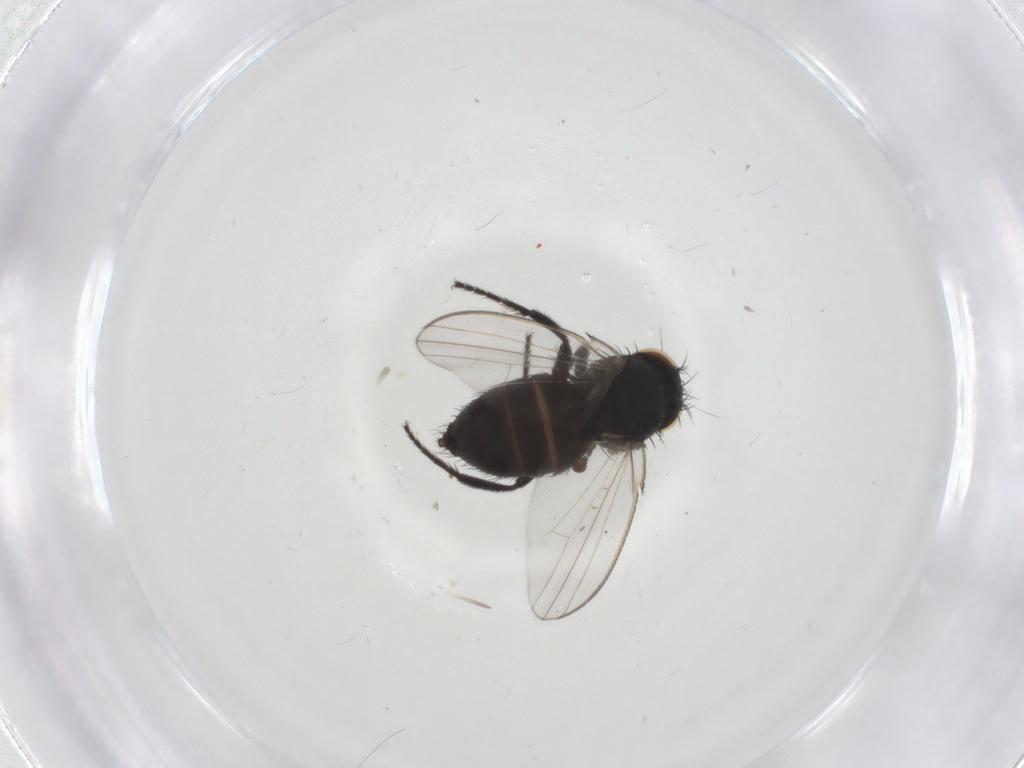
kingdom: Animalia
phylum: Arthropoda
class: Insecta
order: Diptera
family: Milichiidae
